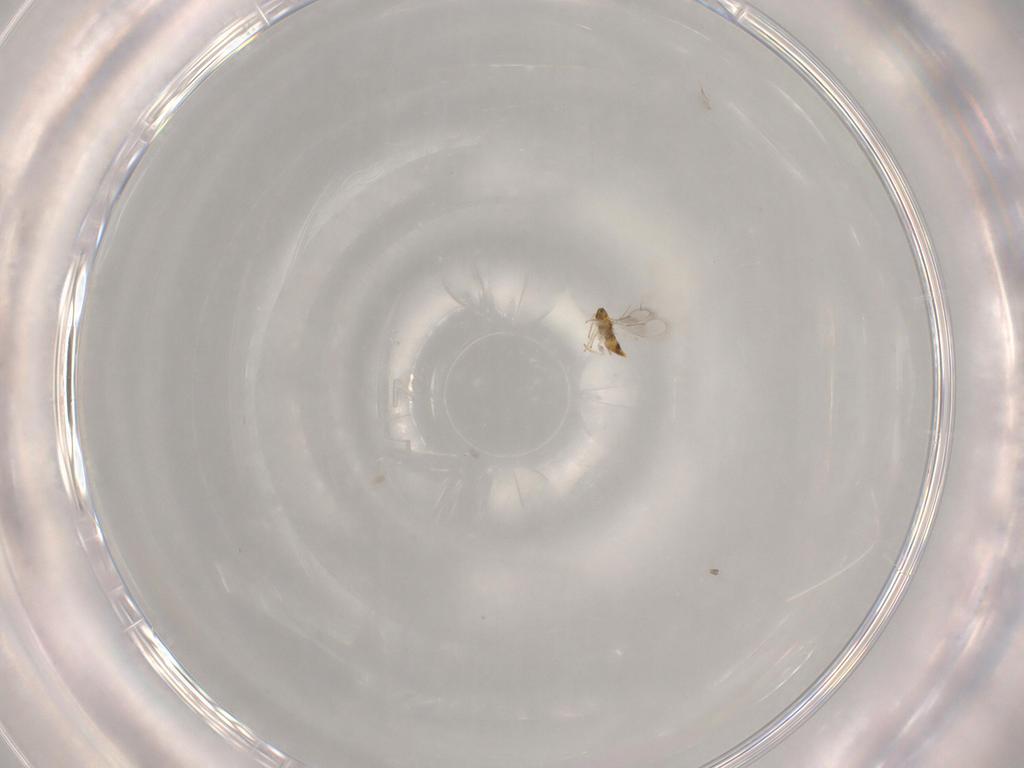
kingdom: Animalia
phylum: Arthropoda
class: Insecta
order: Hymenoptera
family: Aphelinidae
